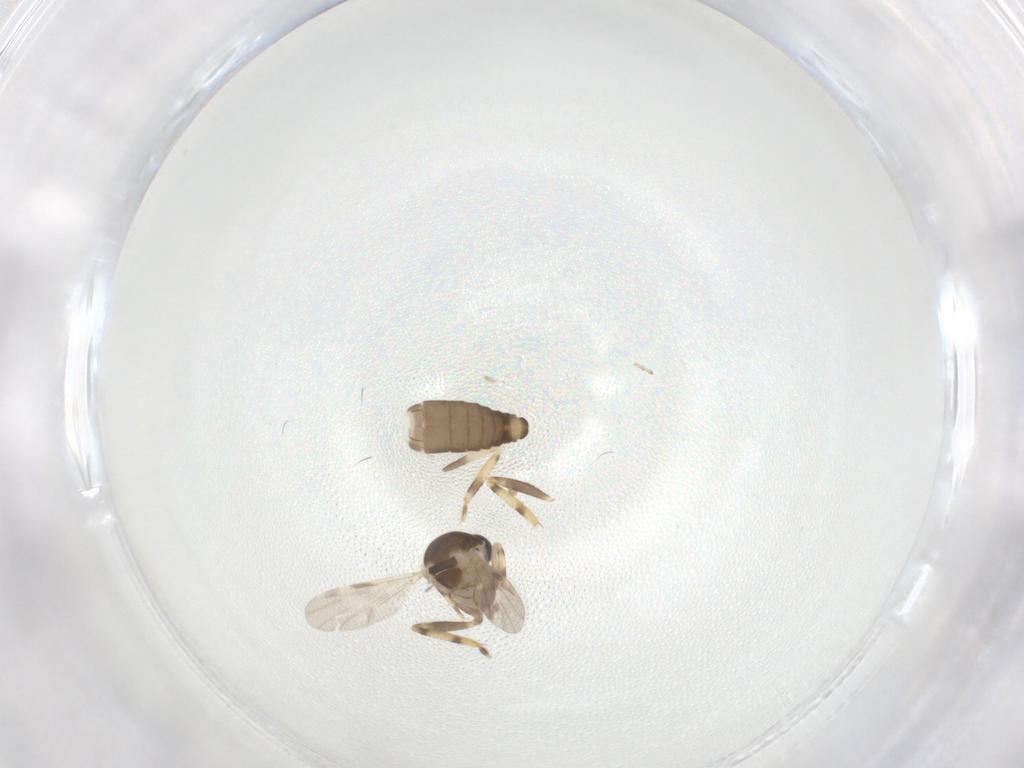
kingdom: Animalia
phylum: Arthropoda
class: Insecta
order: Diptera
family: Ceratopogonidae
